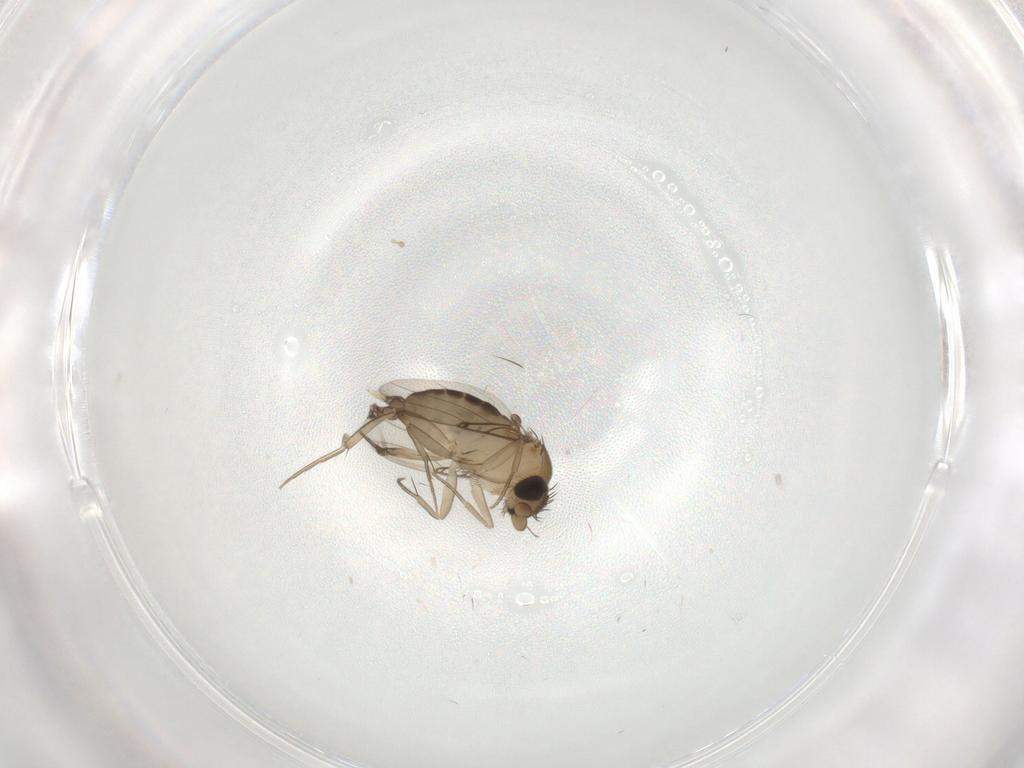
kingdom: Animalia
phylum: Arthropoda
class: Insecta
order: Diptera
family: Phoridae
